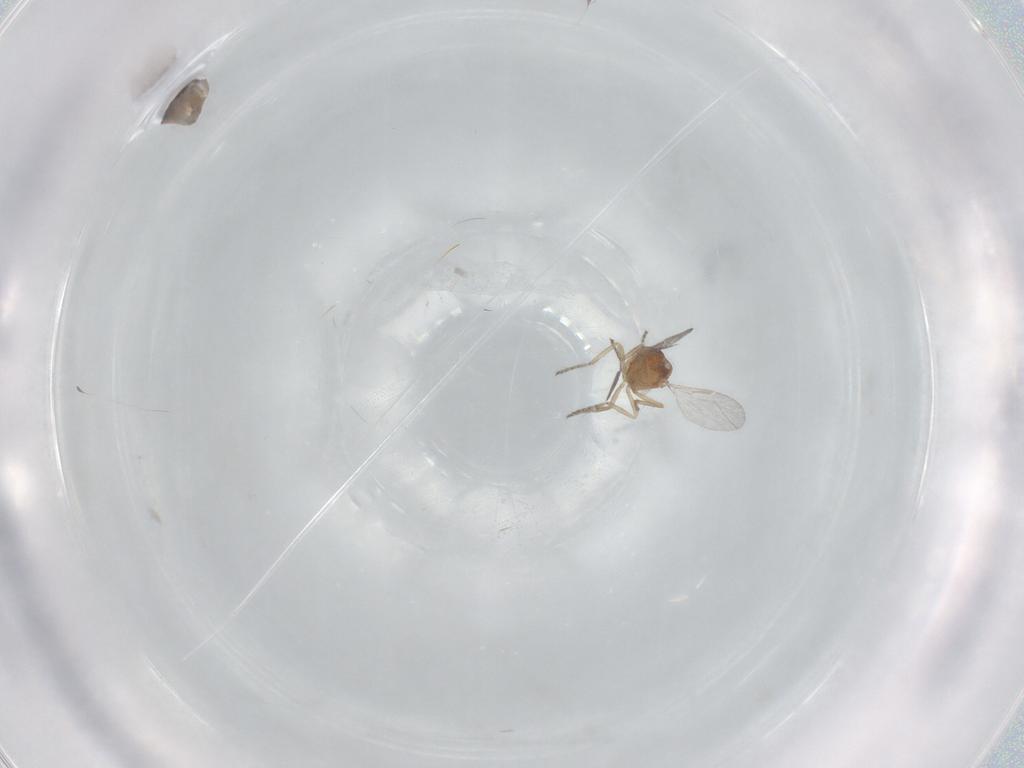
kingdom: Animalia
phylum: Arthropoda
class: Insecta
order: Diptera
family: Ceratopogonidae
